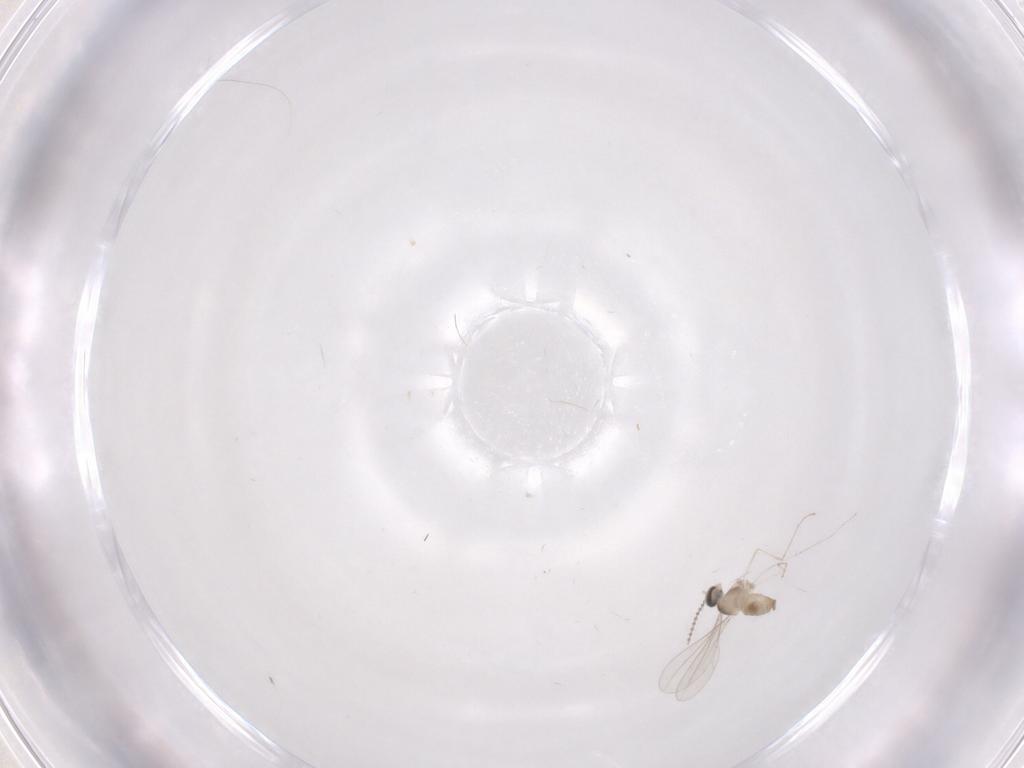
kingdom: Animalia
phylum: Arthropoda
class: Insecta
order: Diptera
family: Cecidomyiidae
